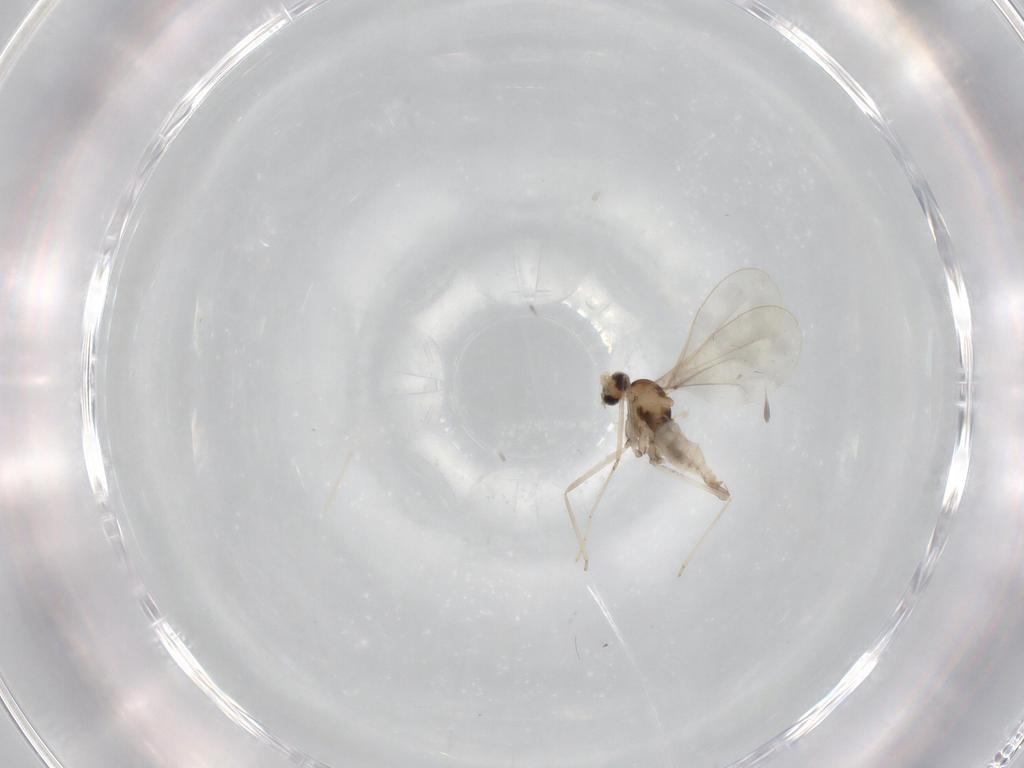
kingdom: Animalia
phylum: Arthropoda
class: Insecta
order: Diptera
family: Cecidomyiidae
